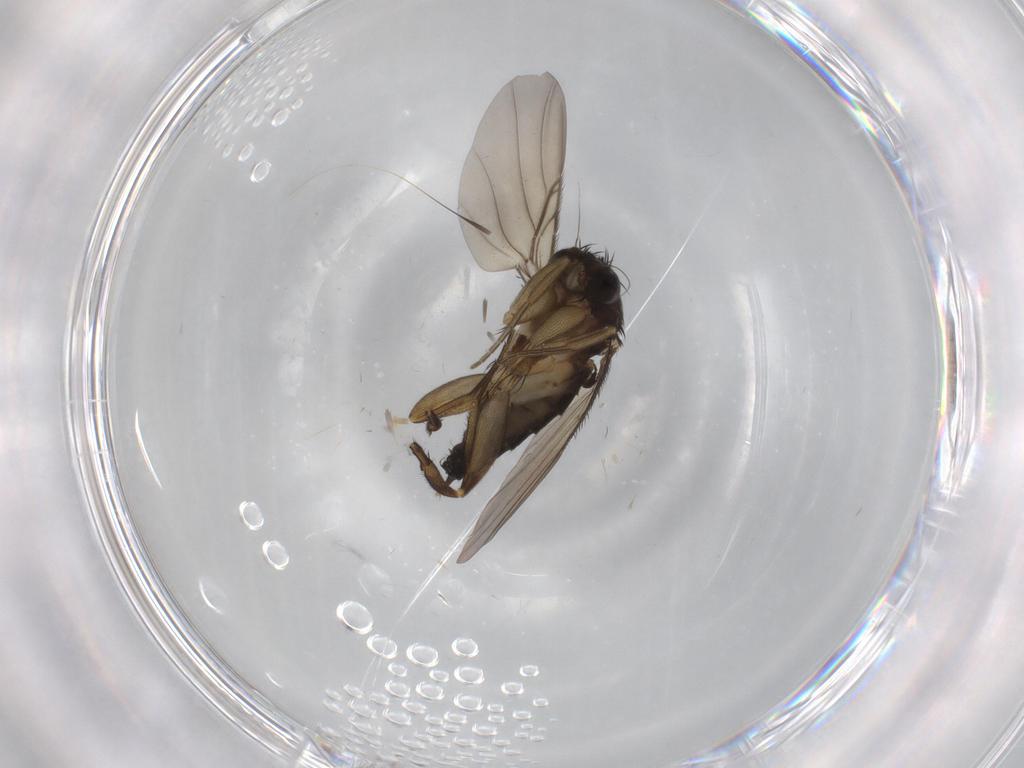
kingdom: Animalia
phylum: Arthropoda
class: Insecta
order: Diptera
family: Phoridae
